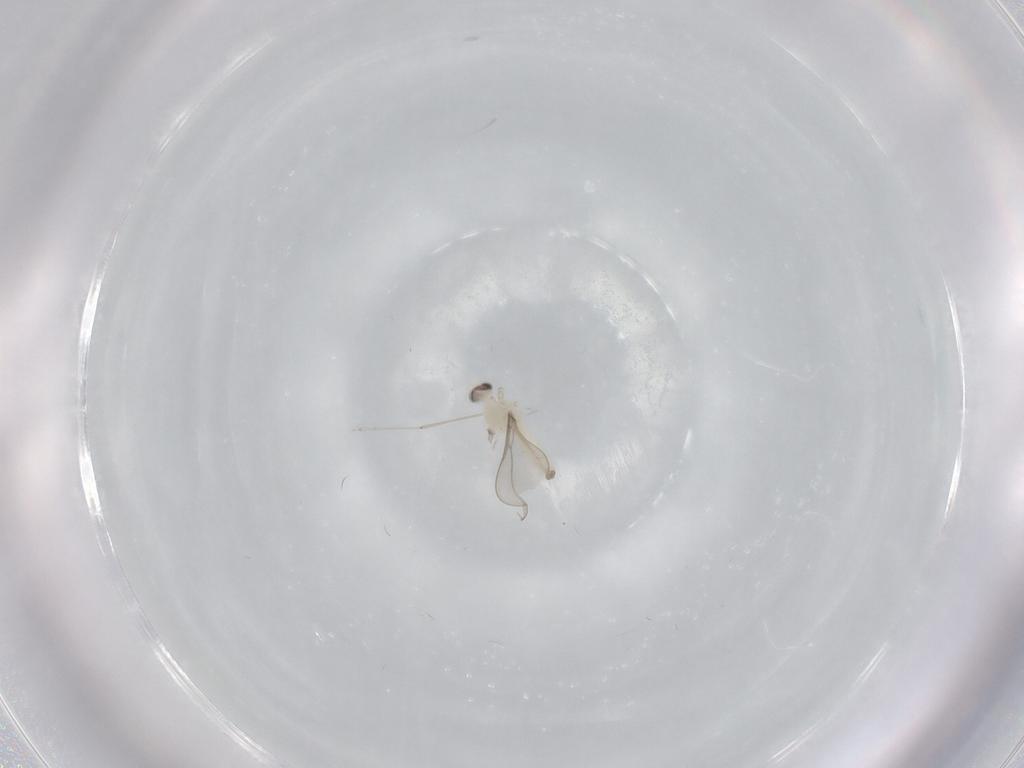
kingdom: Animalia
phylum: Arthropoda
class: Insecta
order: Diptera
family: Cecidomyiidae
